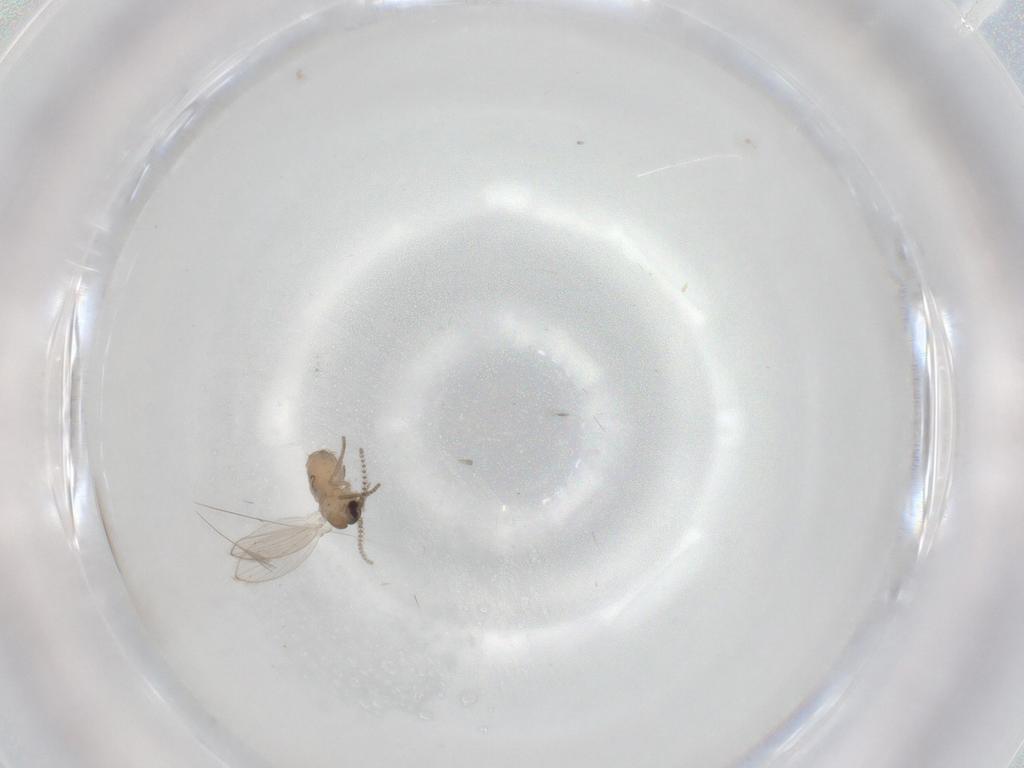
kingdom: Animalia
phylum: Arthropoda
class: Insecta
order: Diptera
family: Psychodidae
